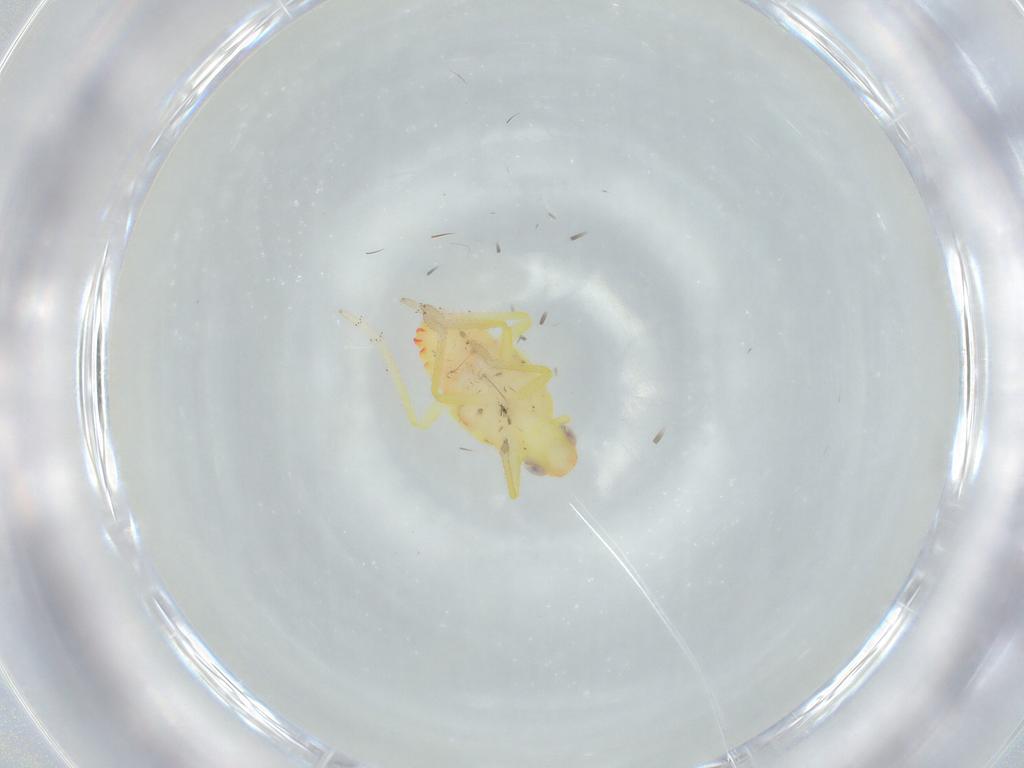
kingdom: Animalia
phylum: Arthropoda
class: Insecta
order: Hemiptera
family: Tropiduchidae
